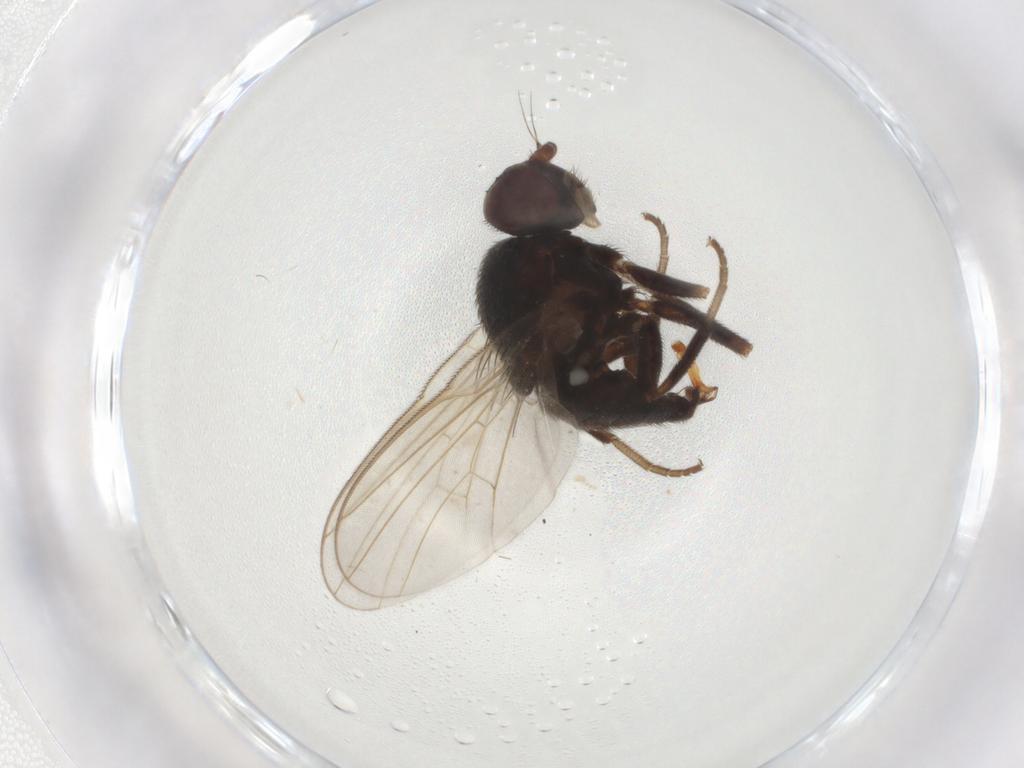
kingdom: Animalia
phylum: Arthropoda
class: Insecta
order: Diptera
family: Agromyzidae
